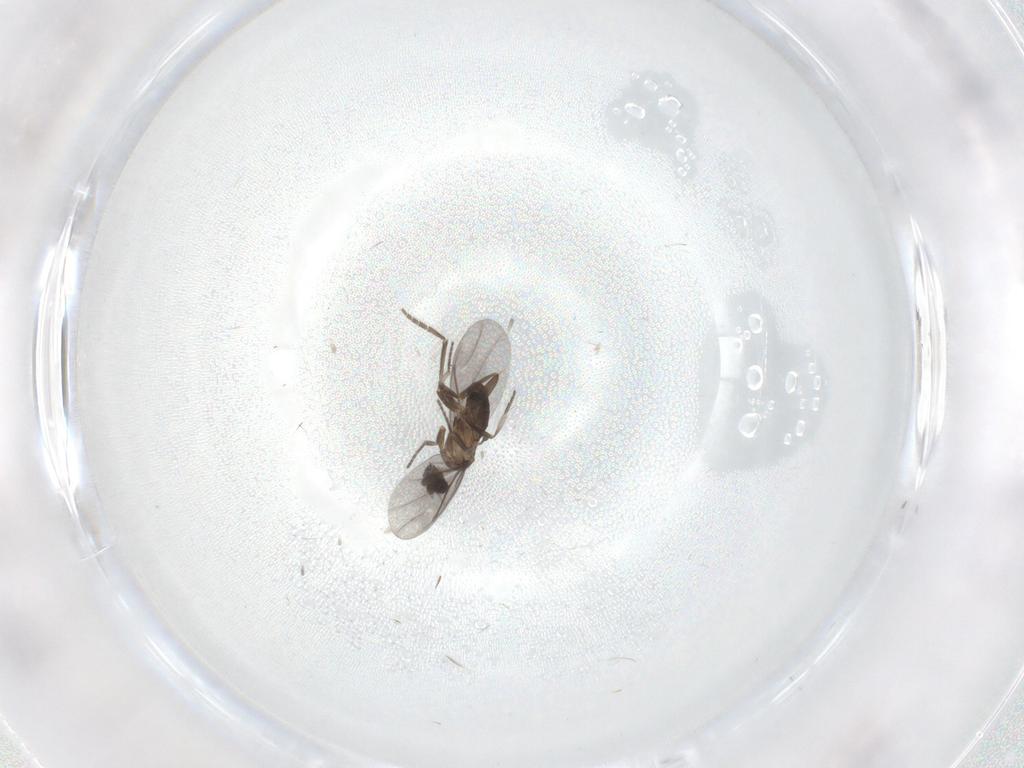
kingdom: Animalia
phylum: Arthropoda
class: Insecta
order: Diptera
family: Phoridae
